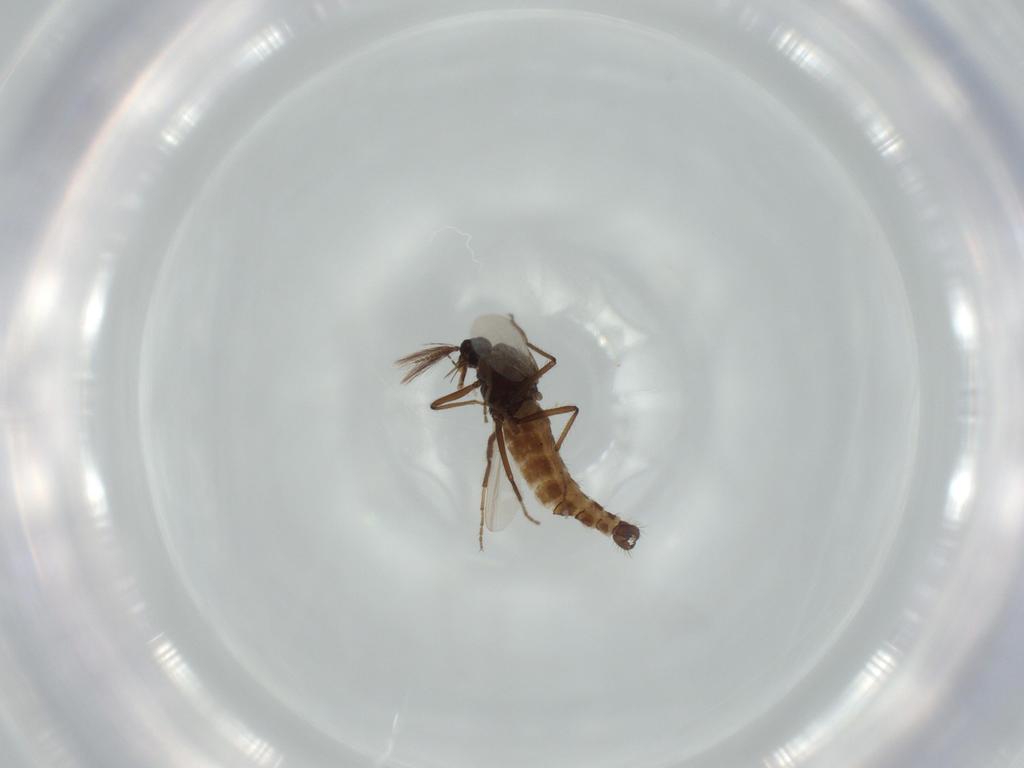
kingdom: Animalia
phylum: Arthropoda
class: Insecta
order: Diptera
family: Ceratopogonidae
